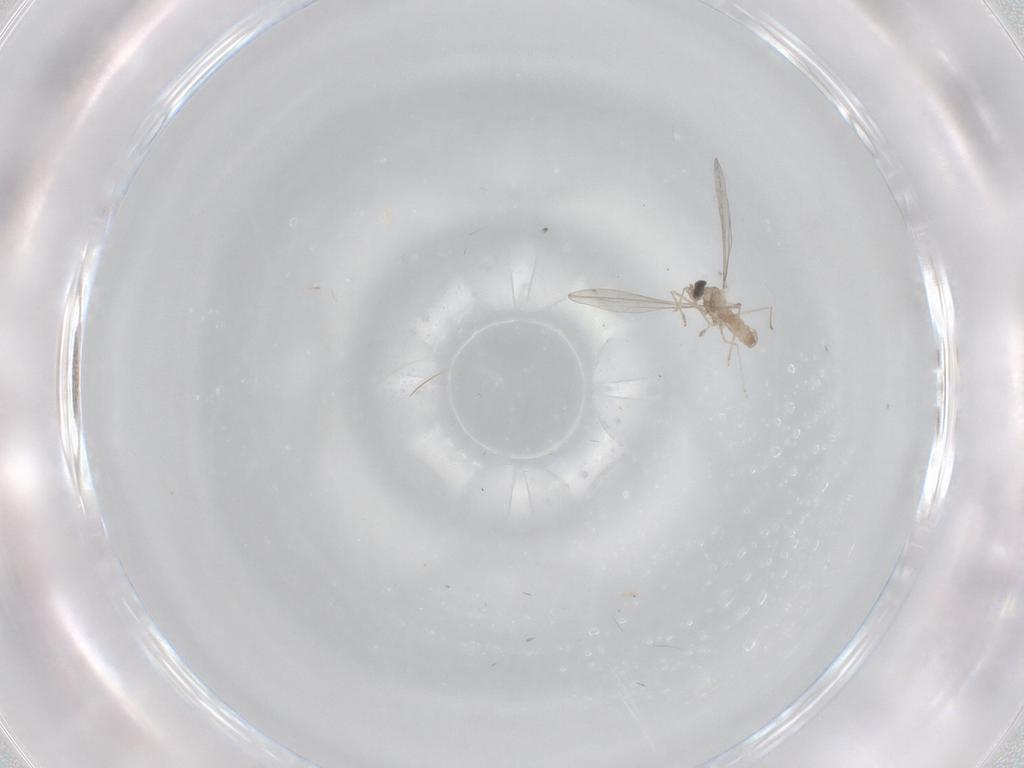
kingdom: Animalia
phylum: Arthropoda
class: Insecta
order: Diptera
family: Cecidomyiidae
